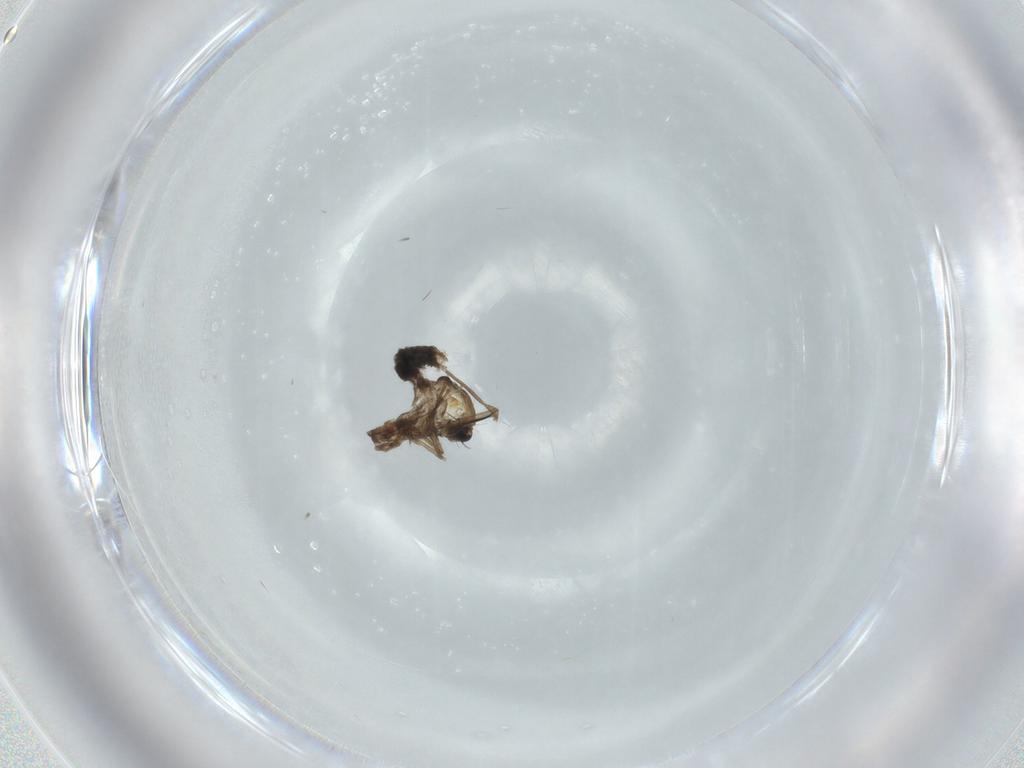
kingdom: Animalia
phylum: Arthropoda
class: Insecta
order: Diptera
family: Chironomidae
